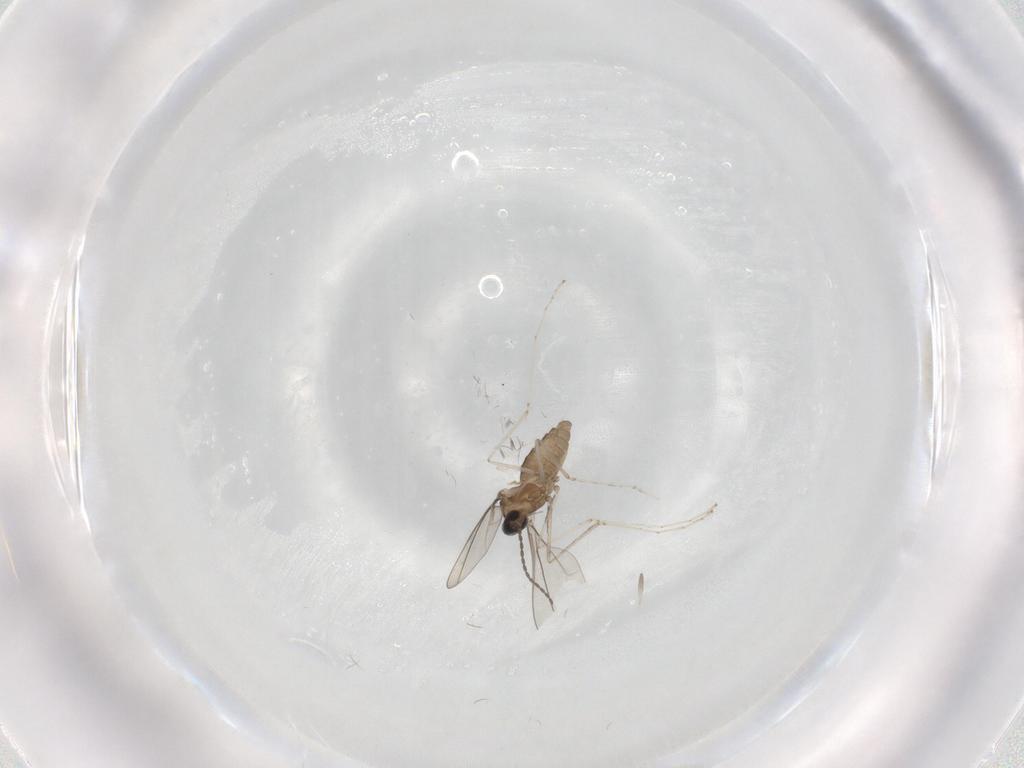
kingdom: Animalia
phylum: Arthropoda
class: Insecta
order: Diptera
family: Cecidomyiidae
